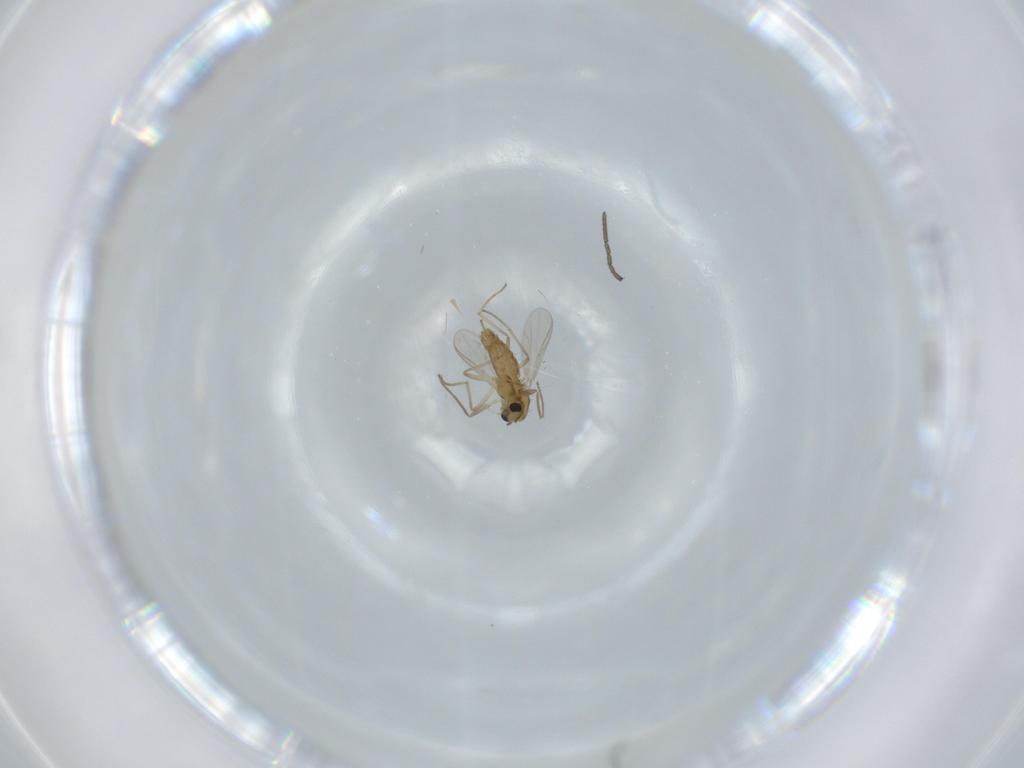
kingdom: Animalia
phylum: Arthropoda
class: Insecta
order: Diptera
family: Chironomidae
